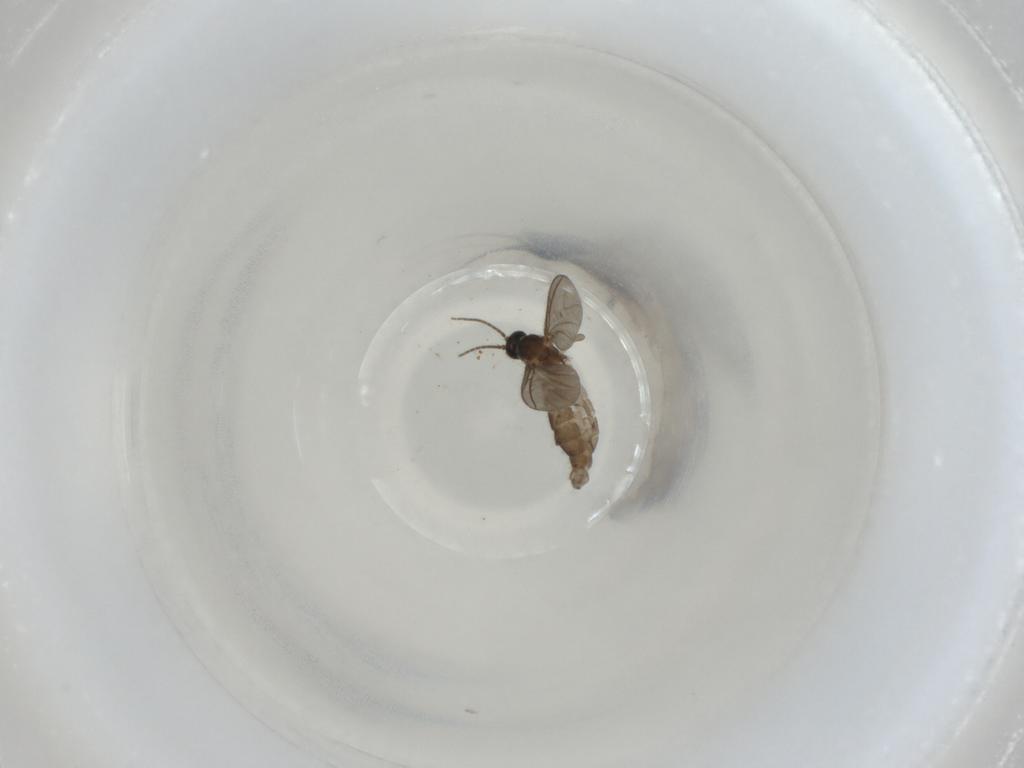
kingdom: Animalia
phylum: Arthropoda
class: Insecta
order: Diptera
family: Sciaridae
